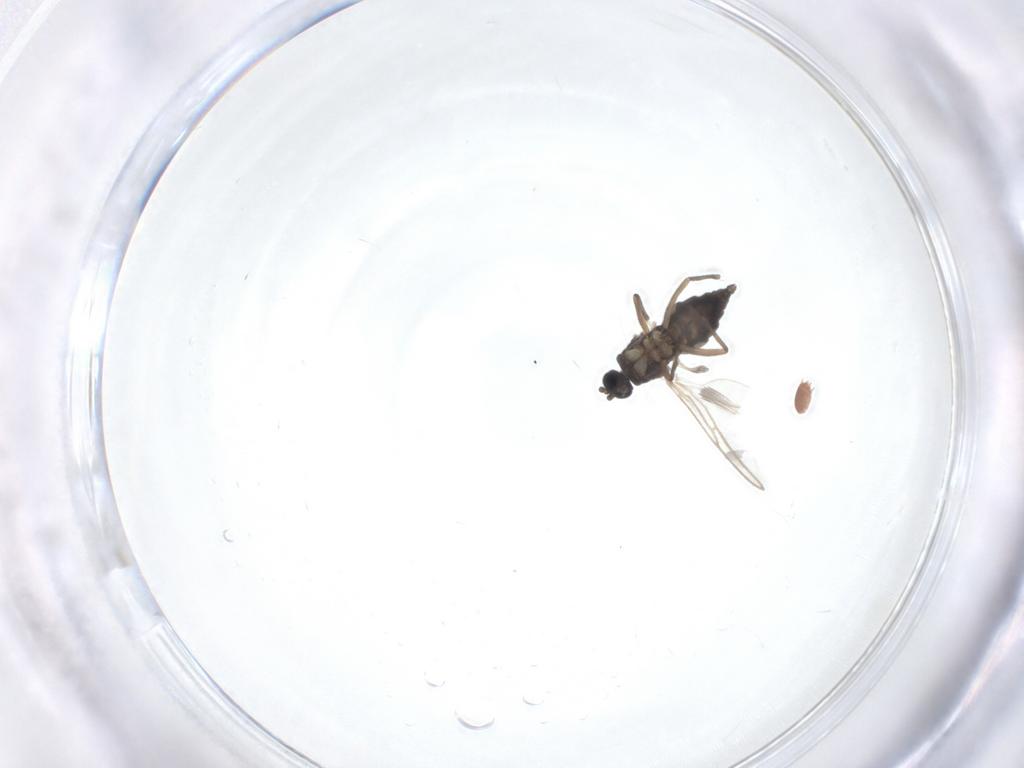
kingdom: Animalia
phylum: Arthropoda
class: Insecta
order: Diptera
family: Sciaridae
